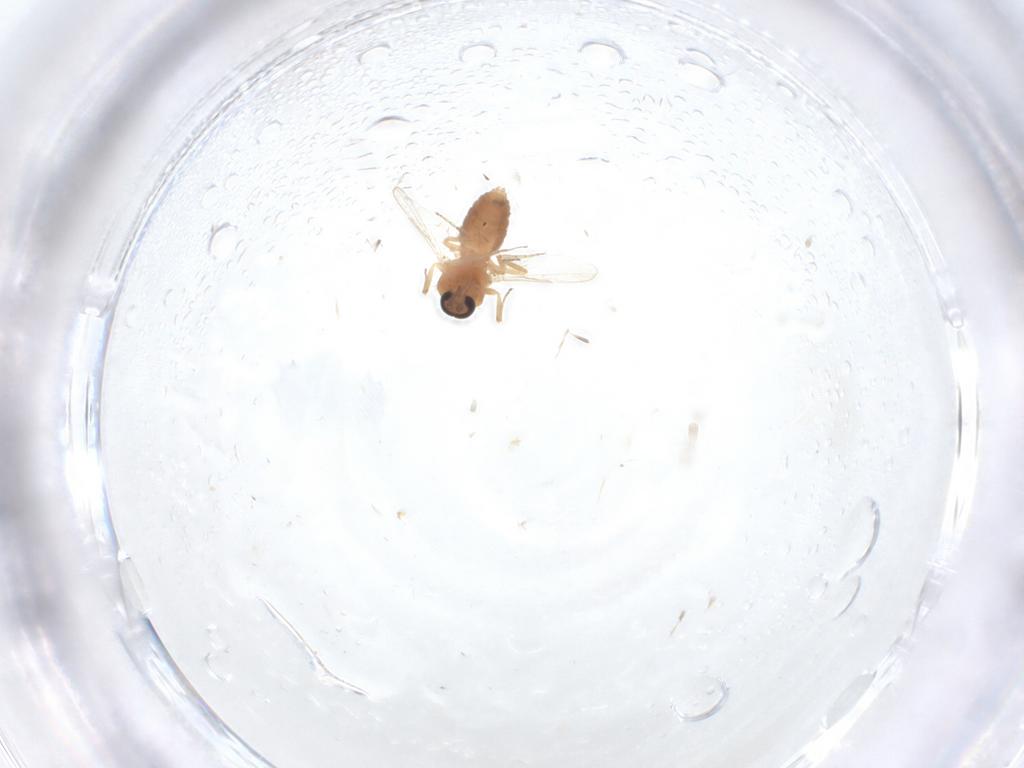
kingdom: Animalia
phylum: Arthropoda
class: Insecta
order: Diptera
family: Ceratopogonidae
